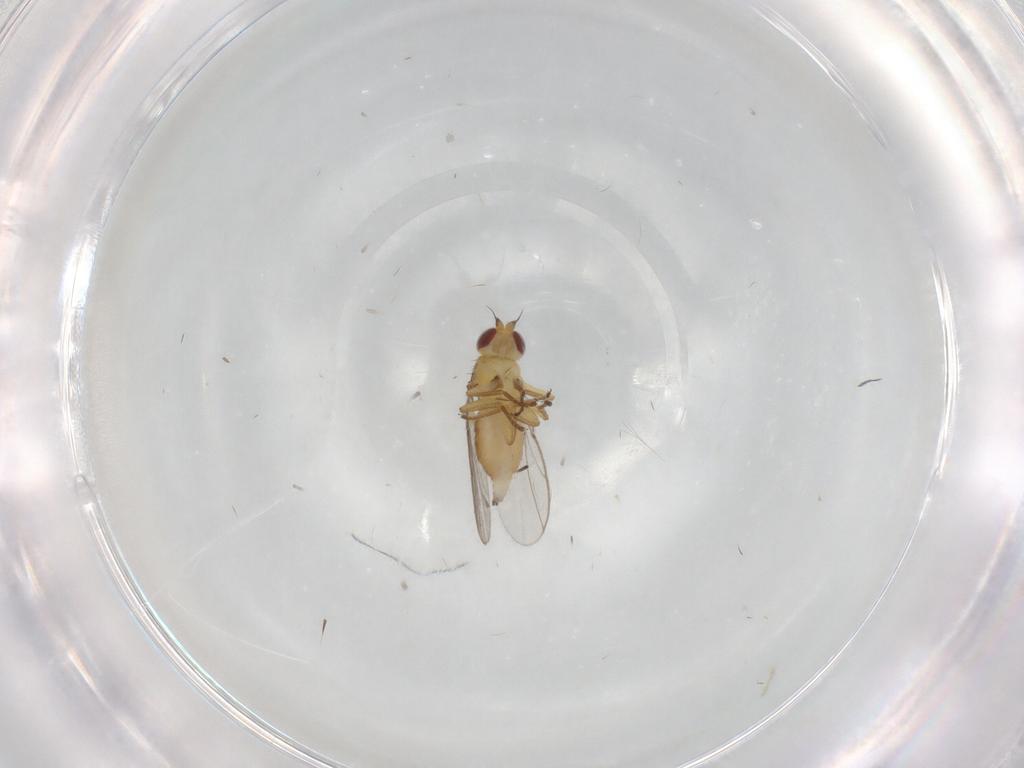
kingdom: Animalia
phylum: Arthropoda
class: Insecta
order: Diptera
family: Chloropidae
